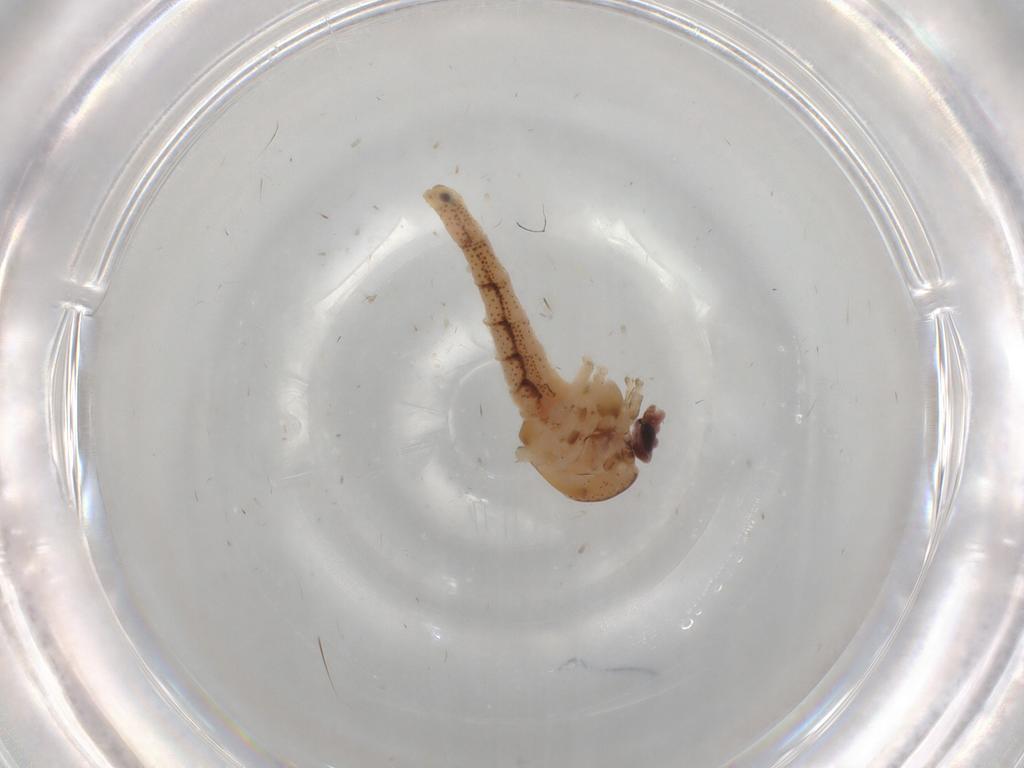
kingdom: Animalia
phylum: Arthropoda
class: Insecta
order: Diptera
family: Chaoboridae
